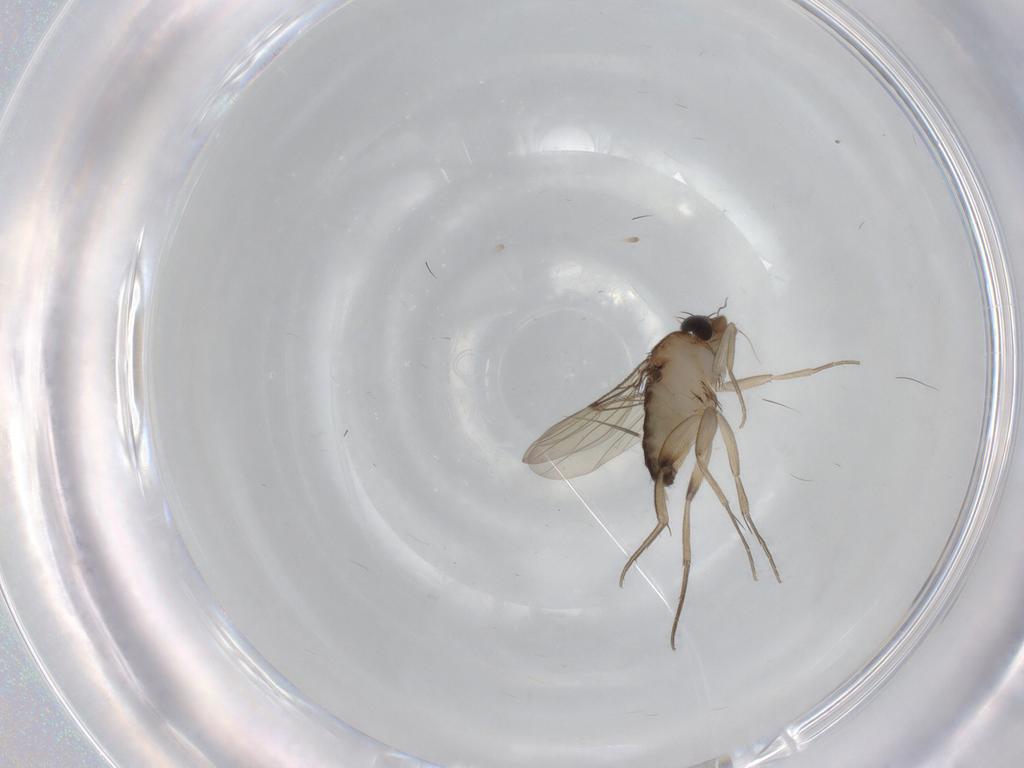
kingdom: Animalia
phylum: Arthropoda
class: Insecta
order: Diptera
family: Phoridae
